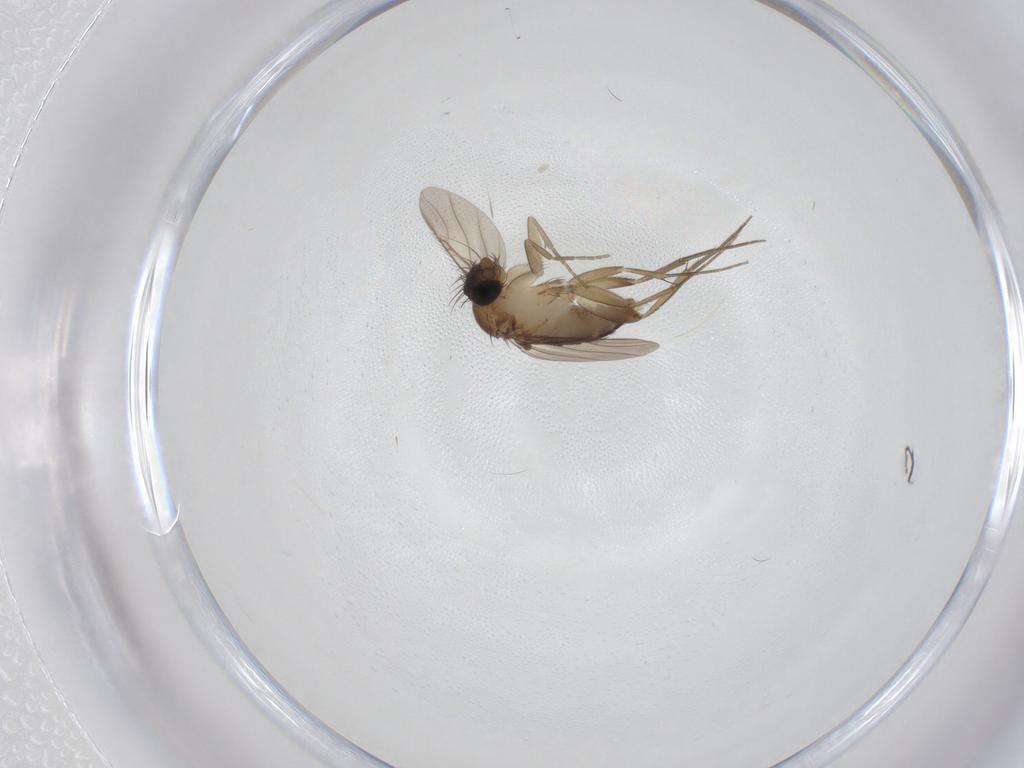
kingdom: Animalia
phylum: Arthropoda
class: Insecta
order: Diptera
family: Phoridae
